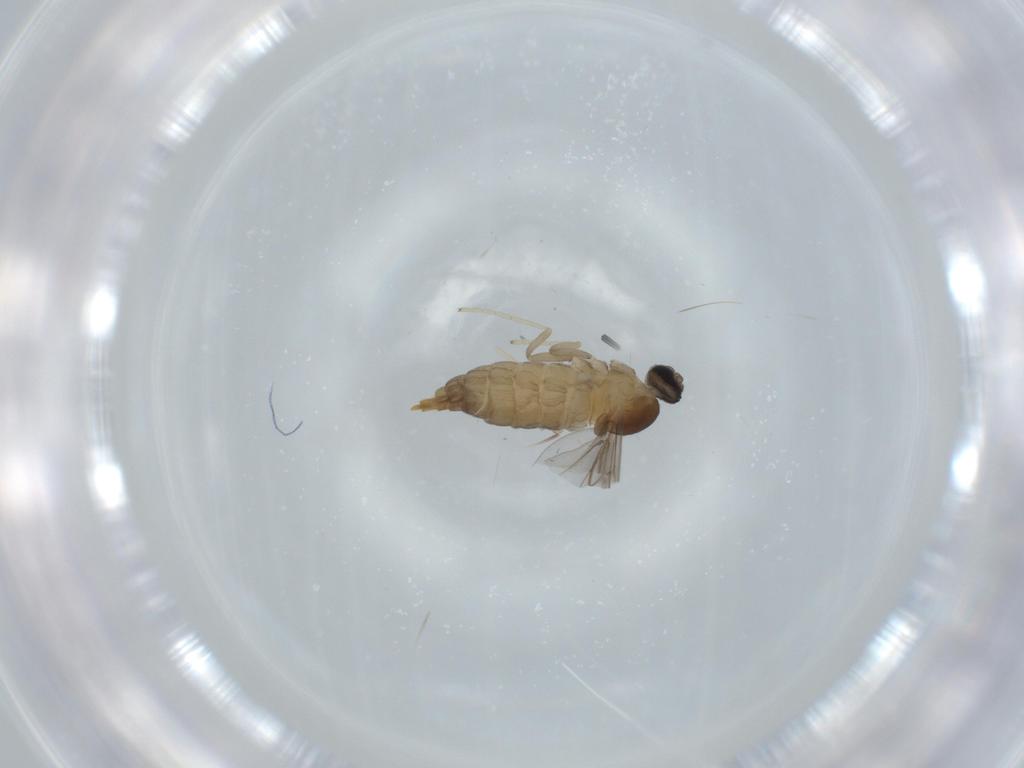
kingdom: Animalia
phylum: Arthropoda
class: Insecta
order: Diptera
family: Cecidomyiidae
